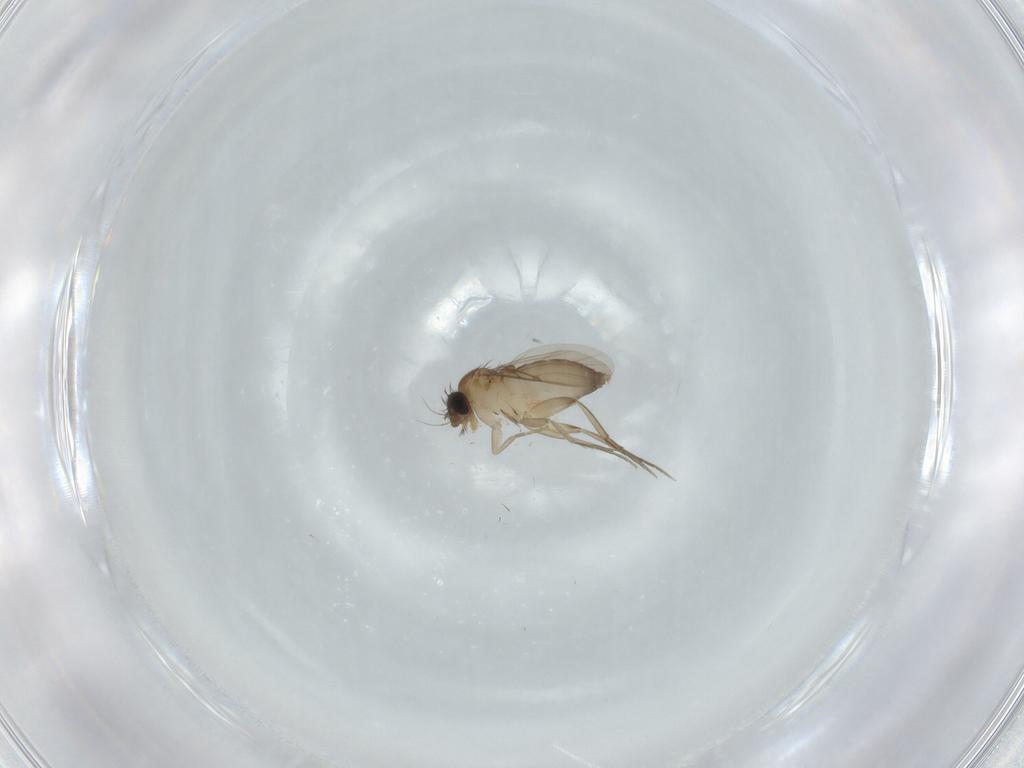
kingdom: Animalia
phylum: Arthropoda
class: Insecta
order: Diptera
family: Phoridae
